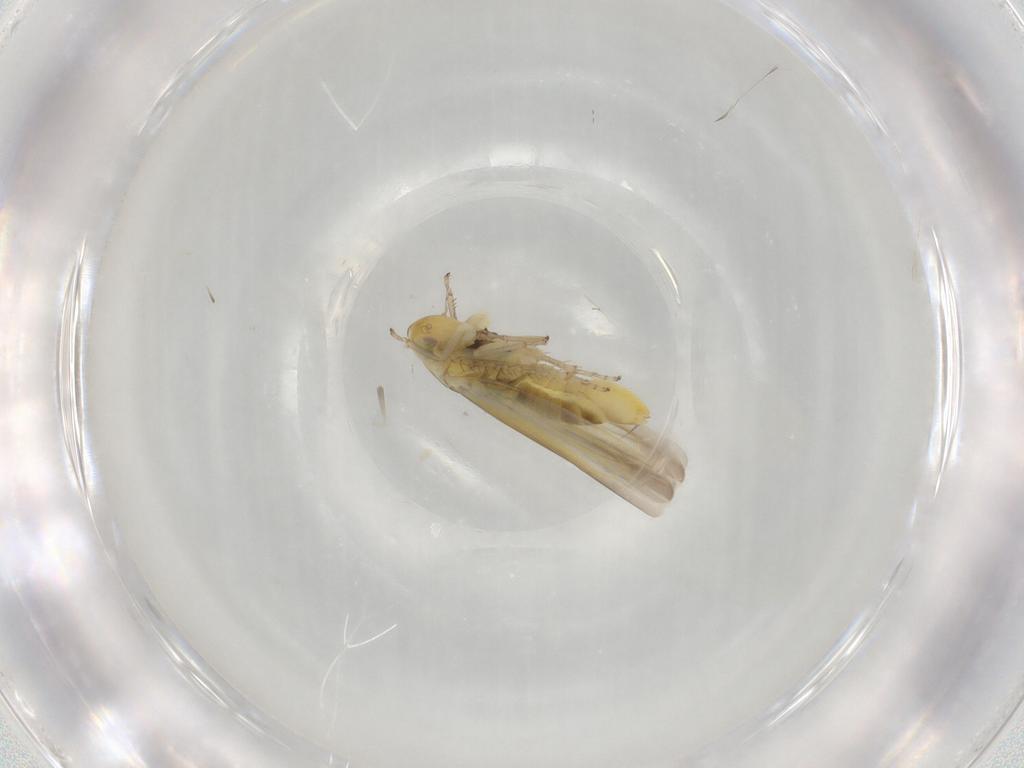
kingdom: Animalia
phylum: Arthropoda
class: Insecta
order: Hemiptera
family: Cicadellidae
